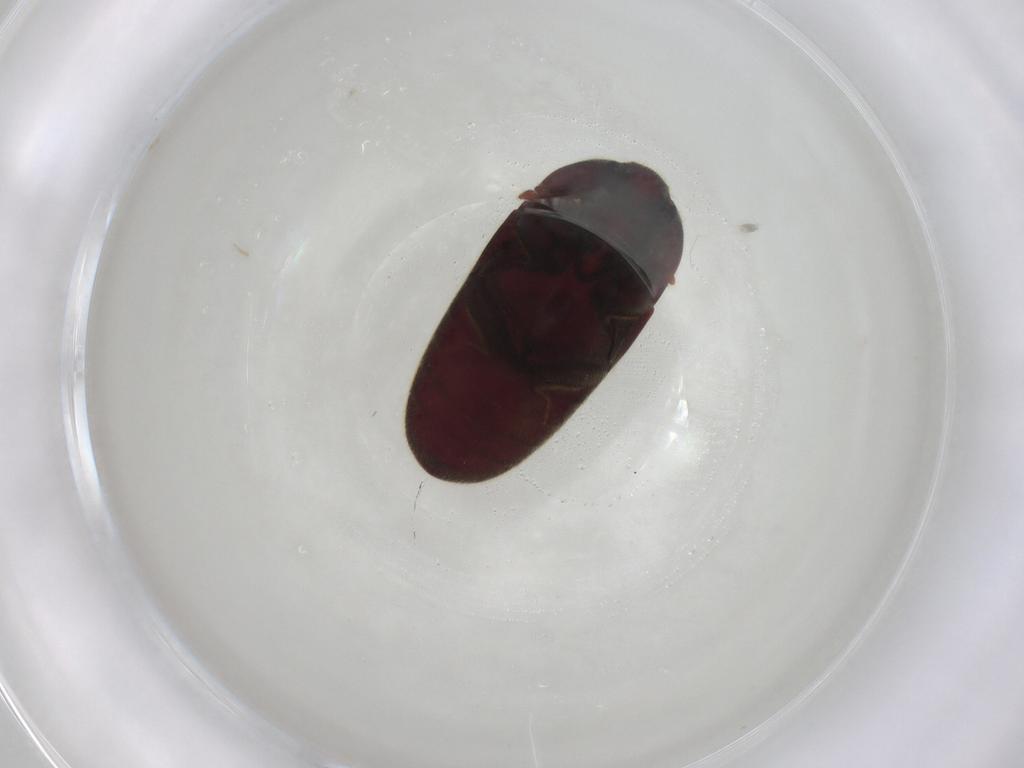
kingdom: Animalia
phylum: Arthropoda
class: Insecta
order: Coleoptera
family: Throscidae
